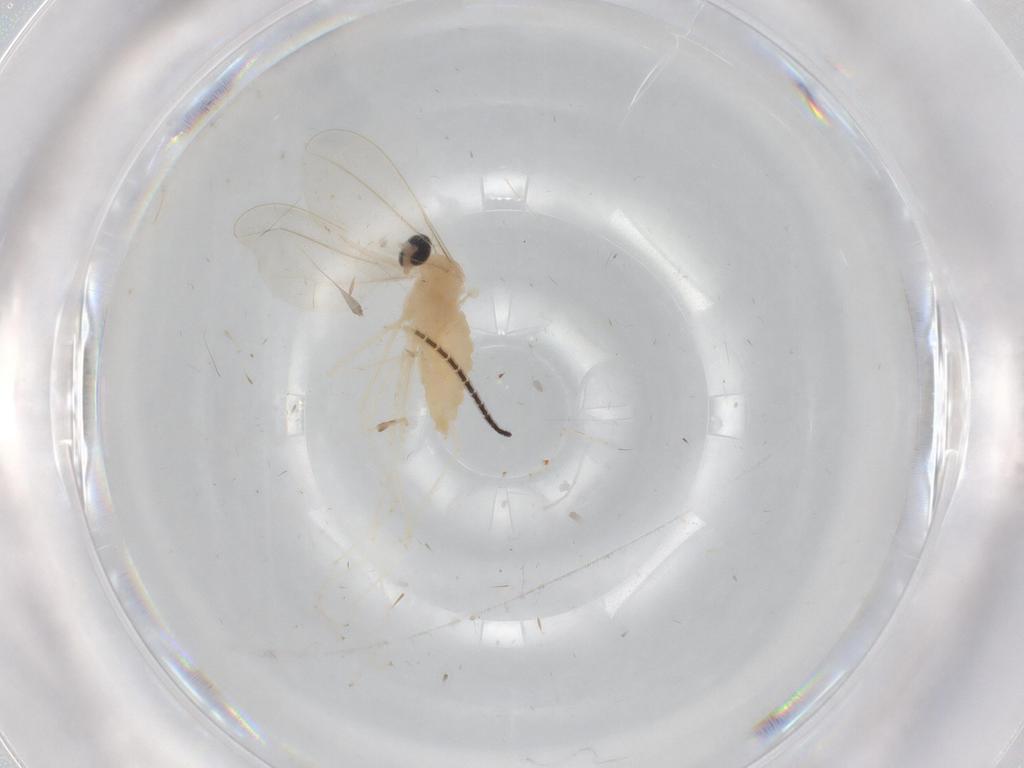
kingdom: Animalia
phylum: Arthropoda
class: Insecta
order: Diptera
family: Cecidomyiidae
